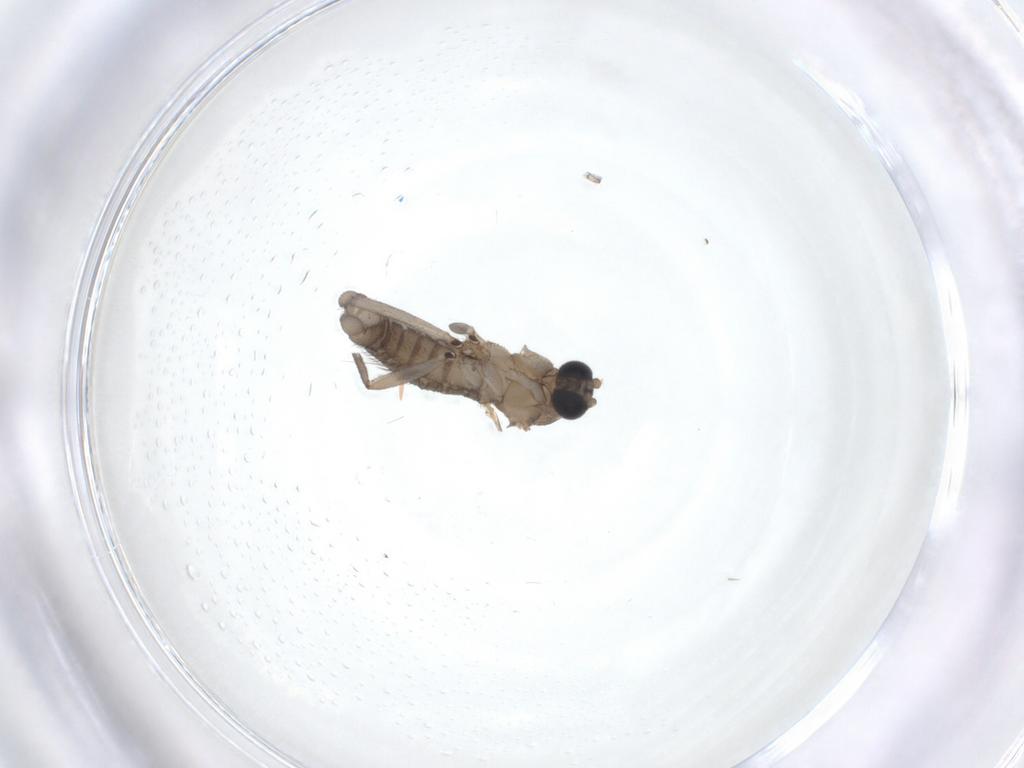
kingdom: Animalia
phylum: Arthropoda
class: Insecta
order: Diptera
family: Sciaridae
